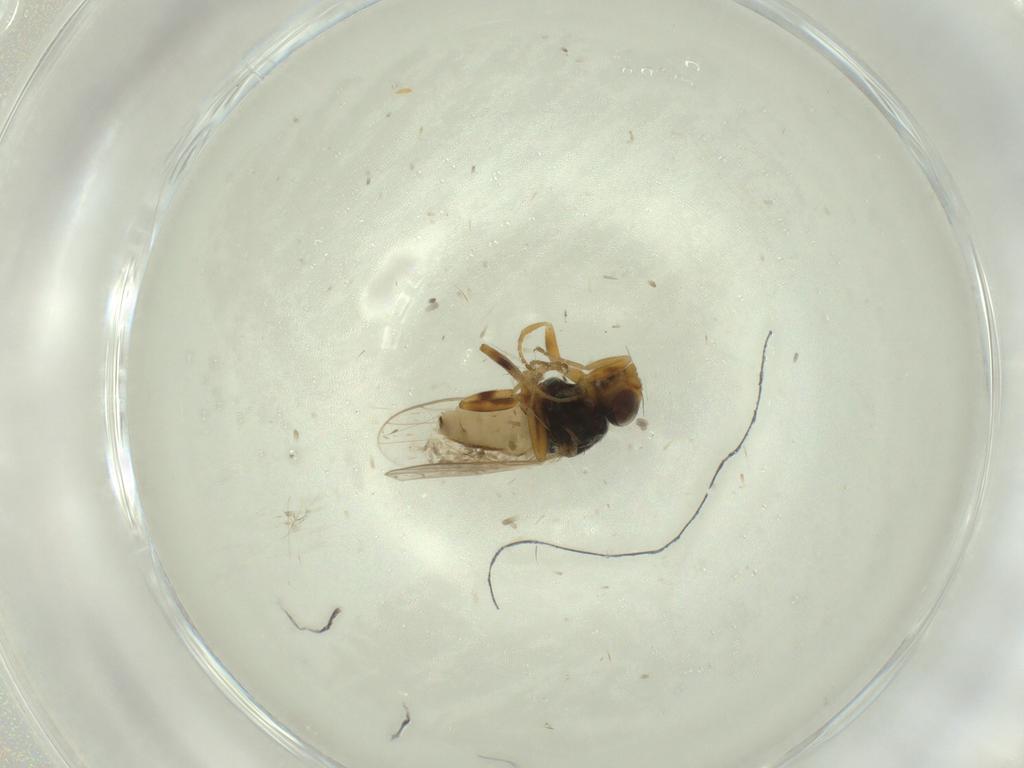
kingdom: Animalia
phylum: Arthropoda
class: Insecta
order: Diptera
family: Chloropidae
